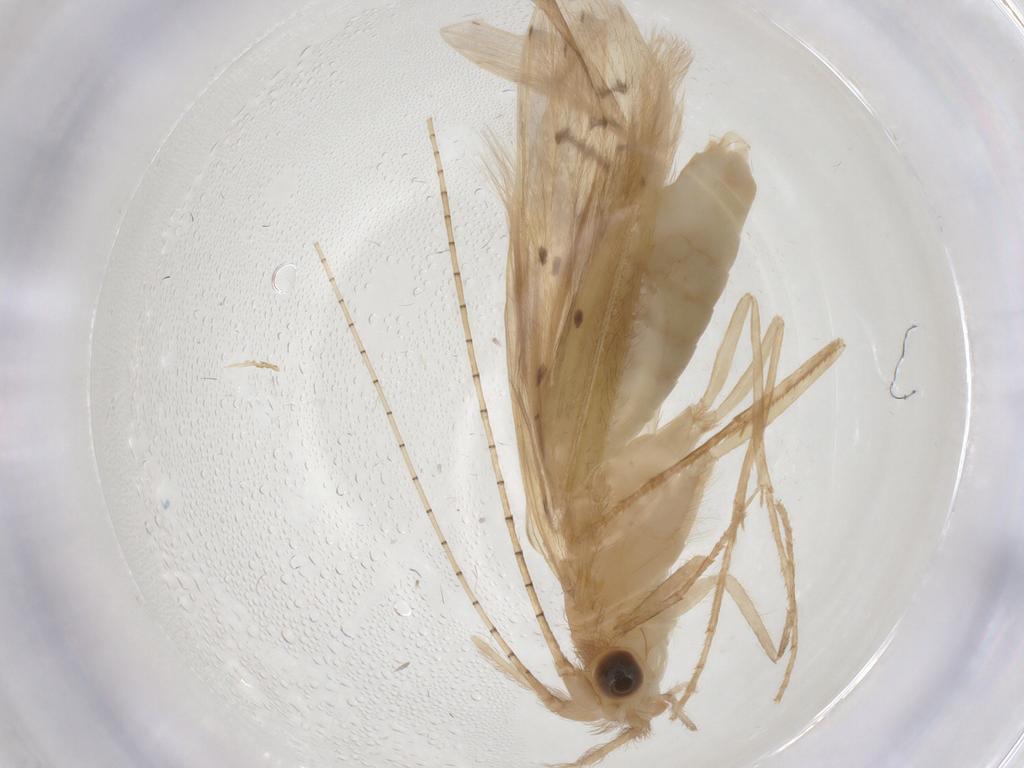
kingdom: Animalia
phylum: Arthropoda
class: Insecta
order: Trichoptera
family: Leptoceridae
